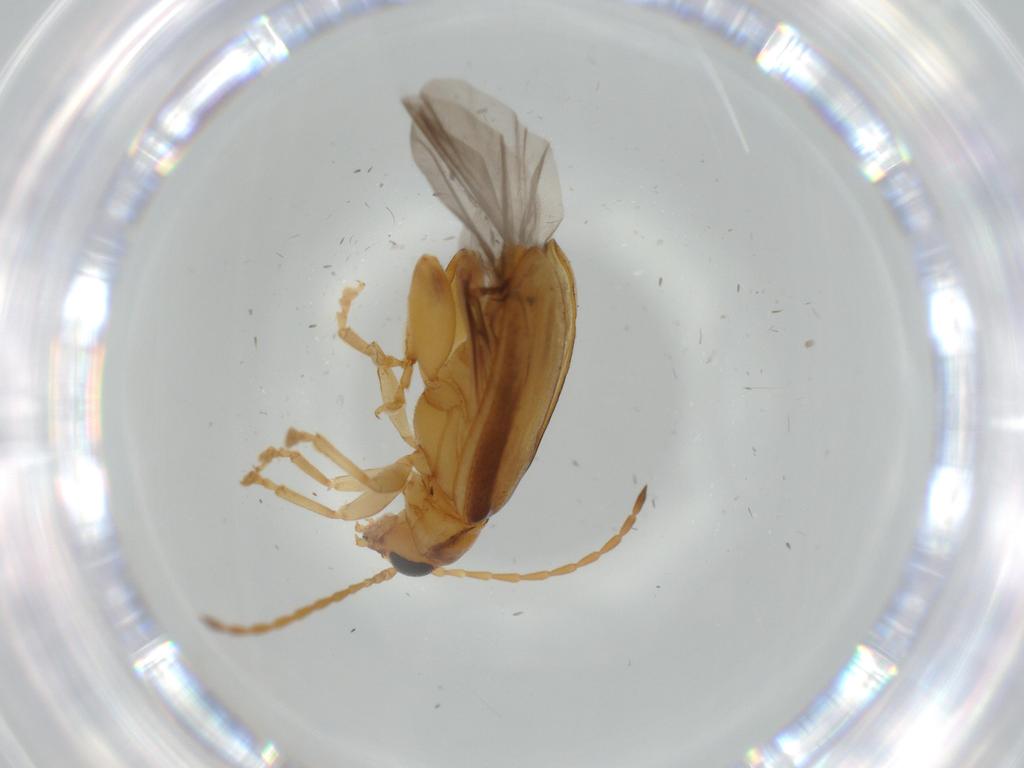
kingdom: Animalia
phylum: Arthropoda
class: Insecta
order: Coleoptera
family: Chrysomelidae
